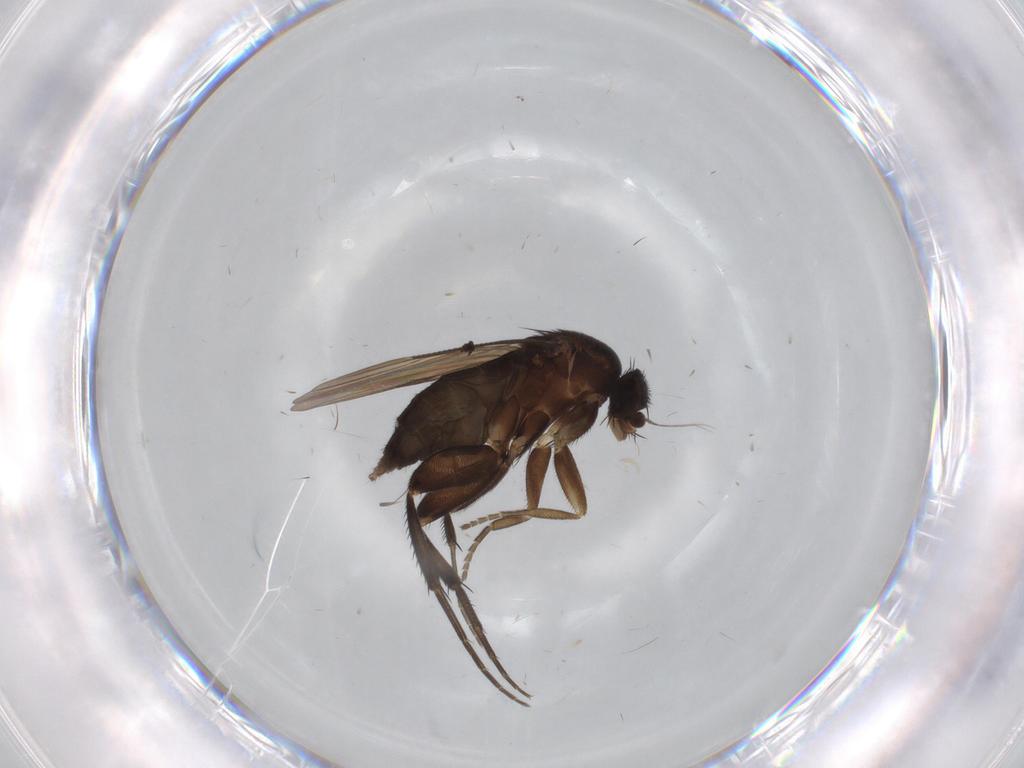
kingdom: Animalia
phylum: Arthropoda
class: Insecta
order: Diptera
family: Phoridae
